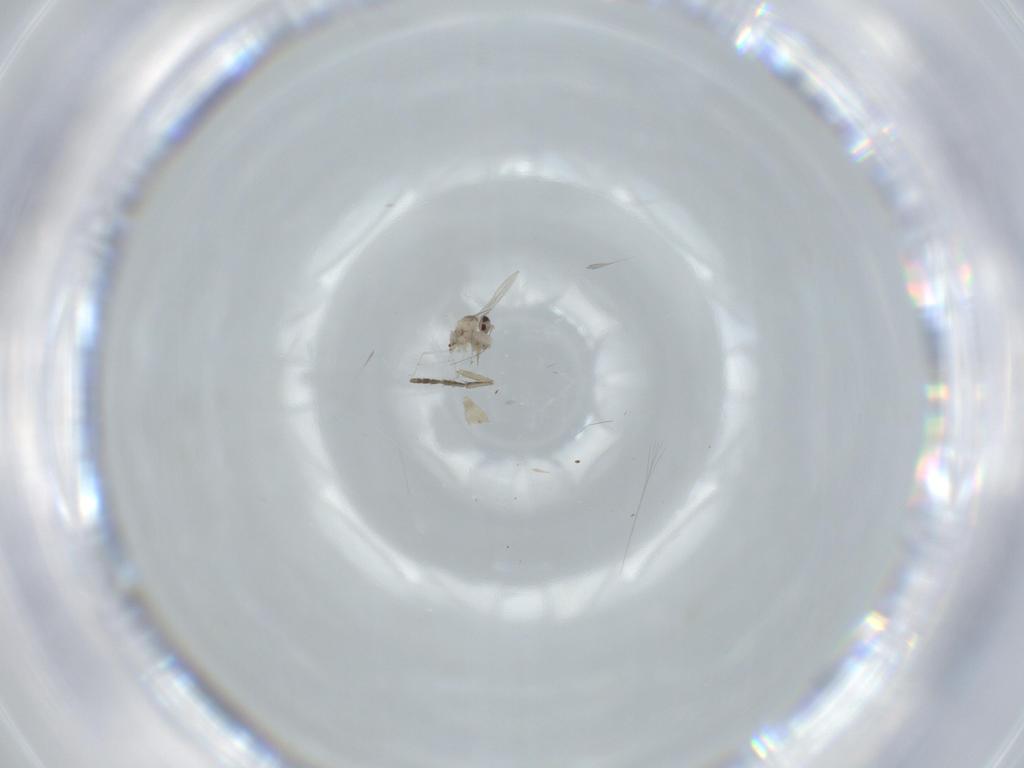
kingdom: Animalia
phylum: Arthropoda
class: Insecta
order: Diptera
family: Cecidomyiidae
